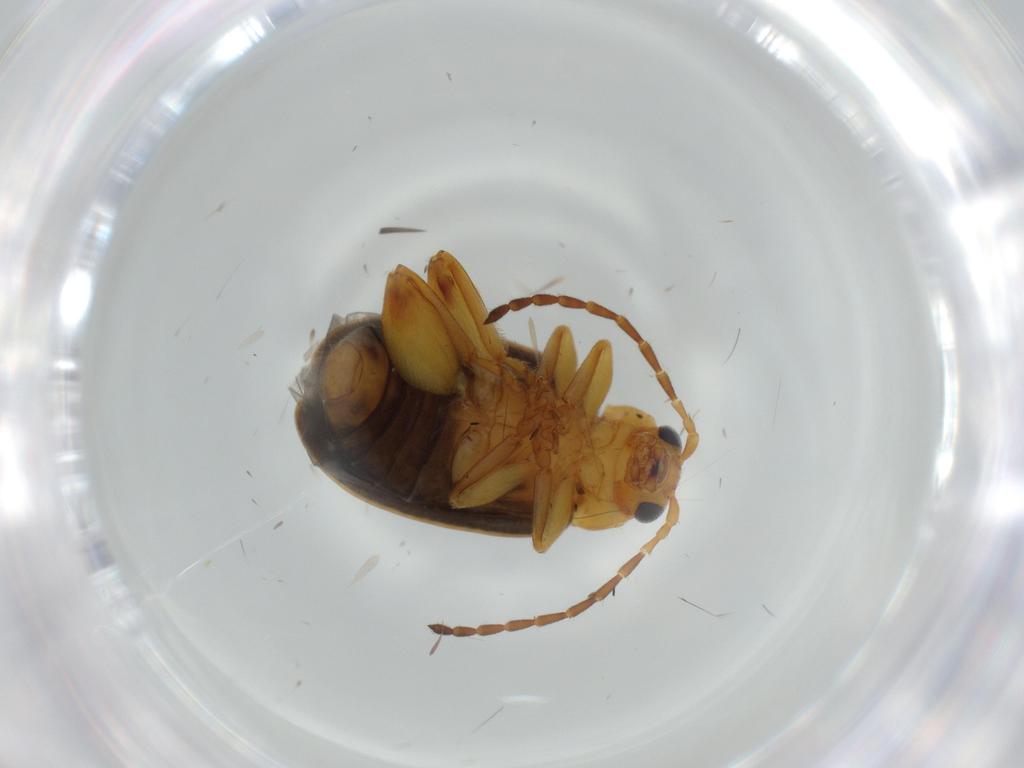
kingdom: Animalia
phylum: Arthropoda
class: Insecta
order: Coleoptera
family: Chrysomelidae
